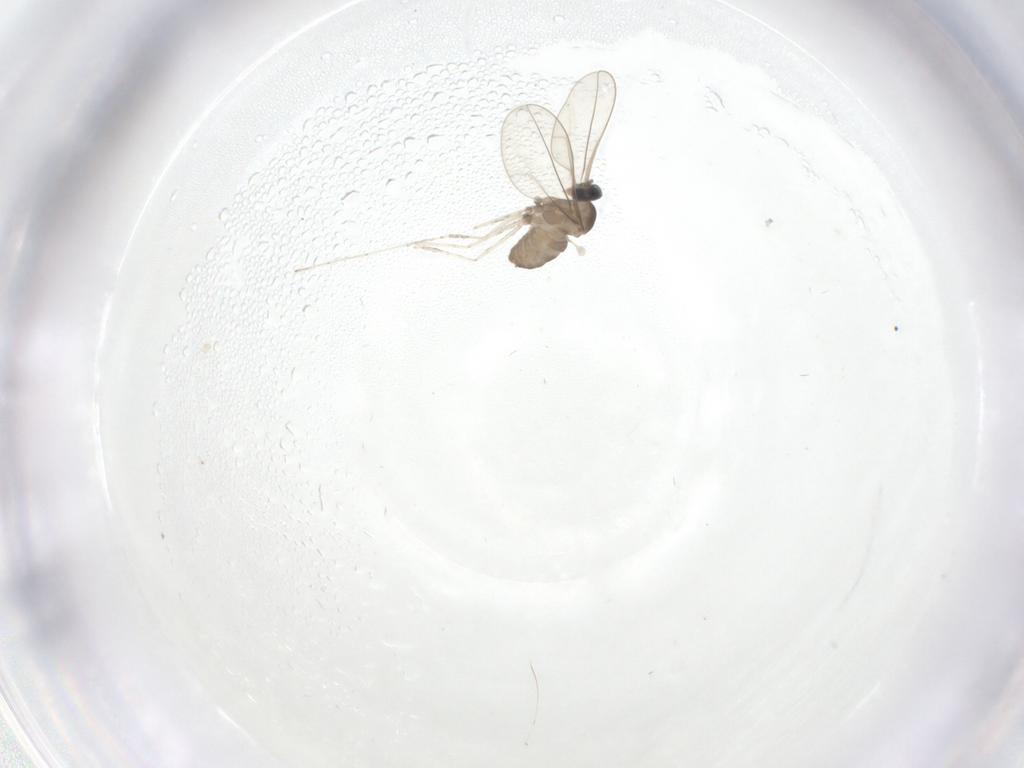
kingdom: Animalia
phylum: Arthropoda
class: Insecta
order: Diptera
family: Cecidomyiidae
